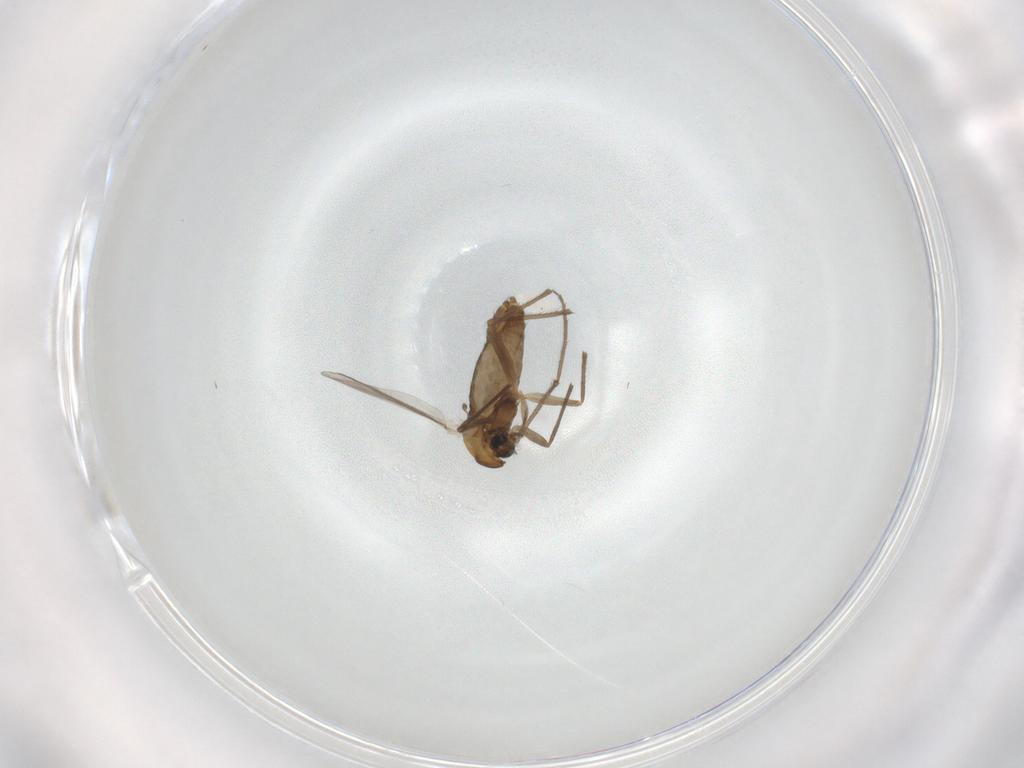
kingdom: Animalia
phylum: Arthropoda
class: Insecta
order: Diptera
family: Chironomidae
